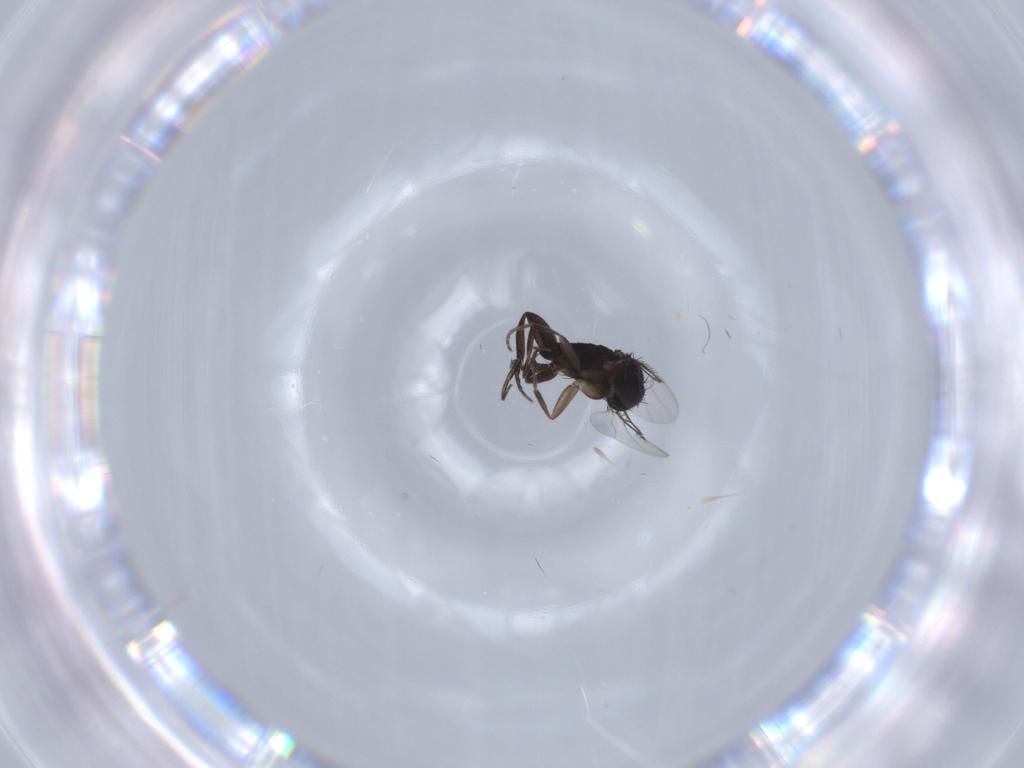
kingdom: Animalia
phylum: Arthropoda
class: Insecta
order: Diptera
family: Phoridae
